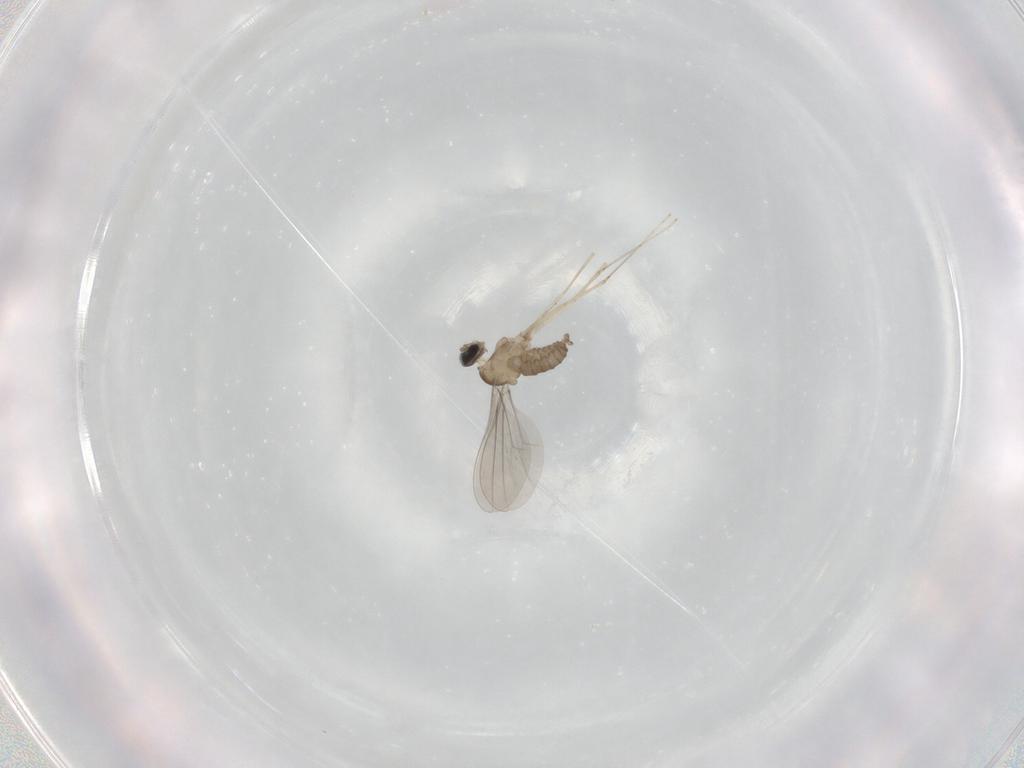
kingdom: Animalia
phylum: Arthropoda
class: Insecta
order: Diptera
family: Cecidomyiidae
